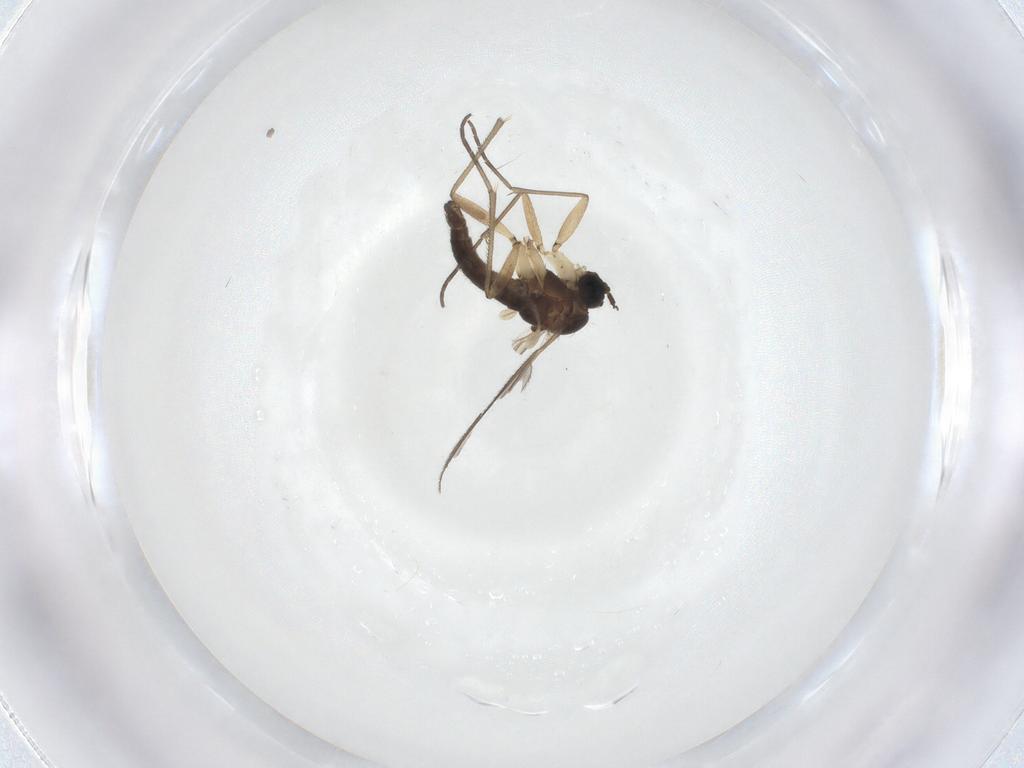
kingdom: Animalia
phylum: Arthropoda
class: Insecta
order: Diptera
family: Sciaridae
